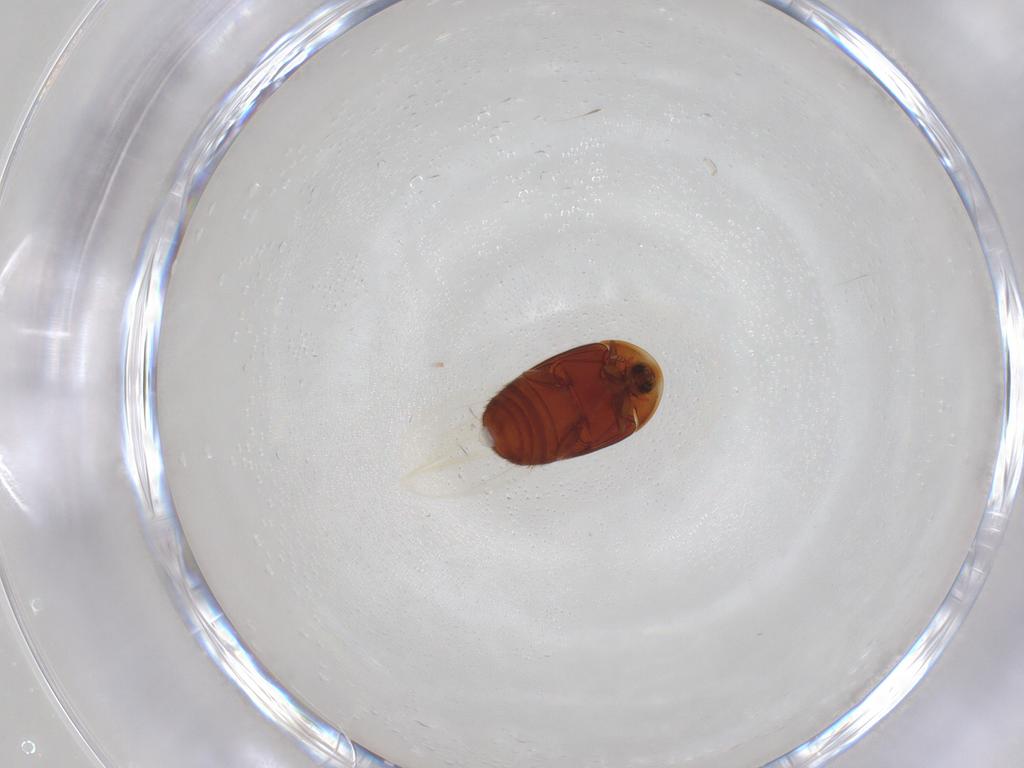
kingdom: Animalia
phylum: Arthropoda
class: Insecta
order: Coleoptera
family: Corylophidae
